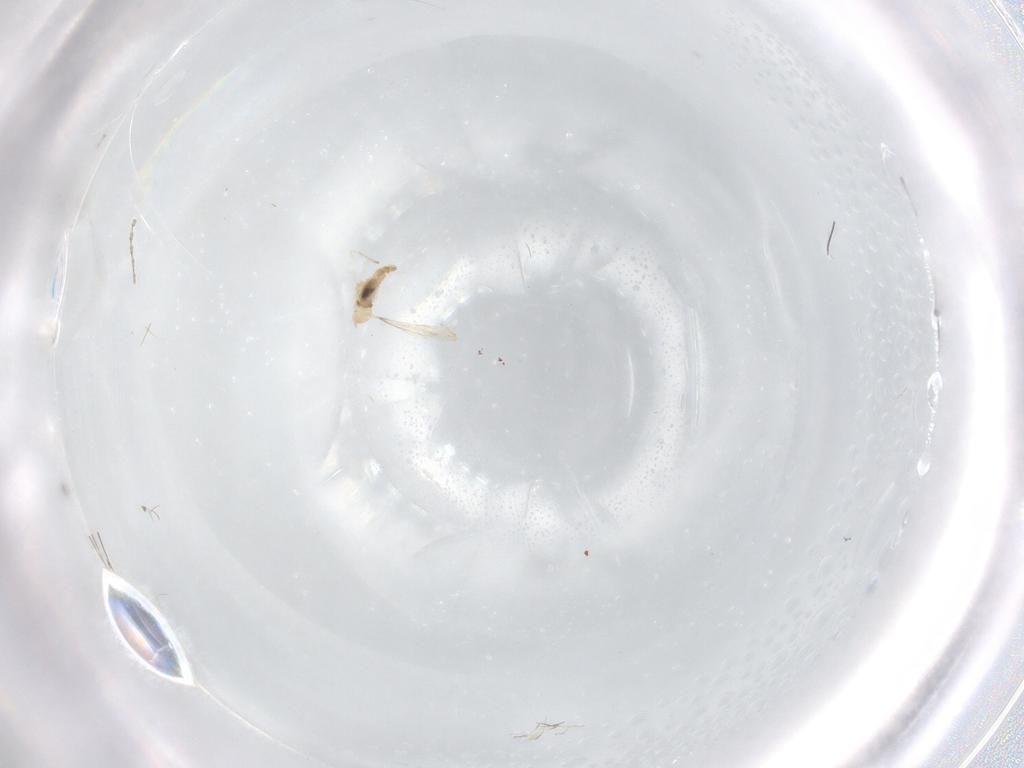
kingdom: Animalia
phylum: Arthropoda
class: Insecta
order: Diptera
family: Cecidomyiidae
